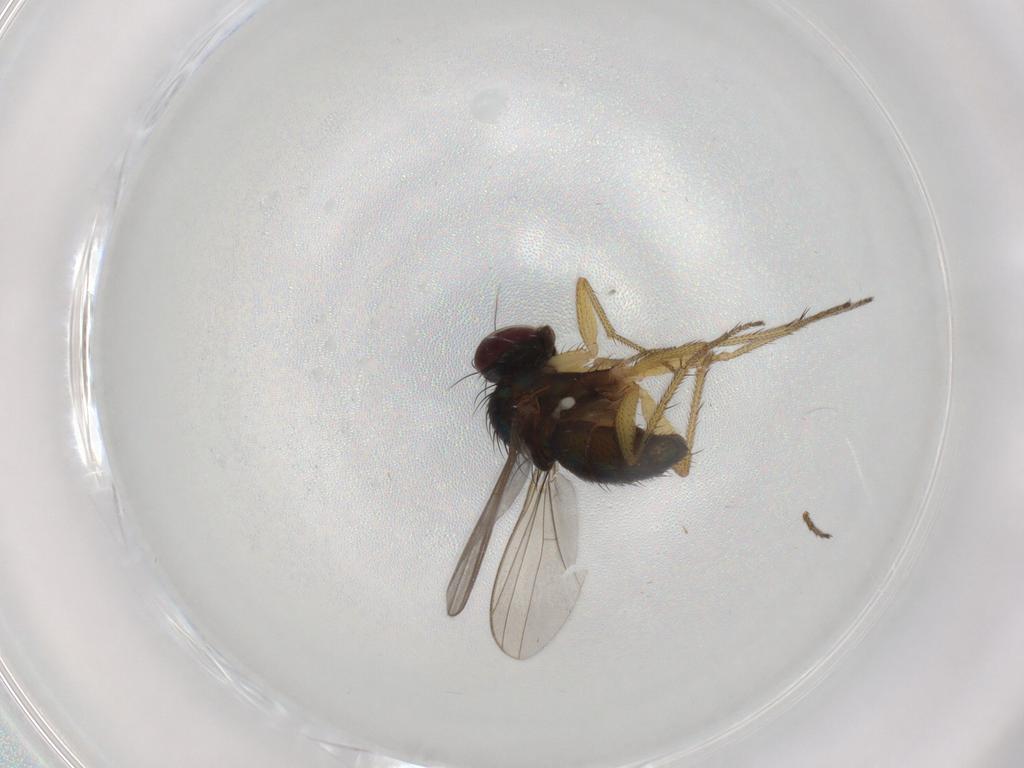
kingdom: Animalia
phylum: Arthropoda
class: Insecta
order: Diptera
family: Dolichopodidae
